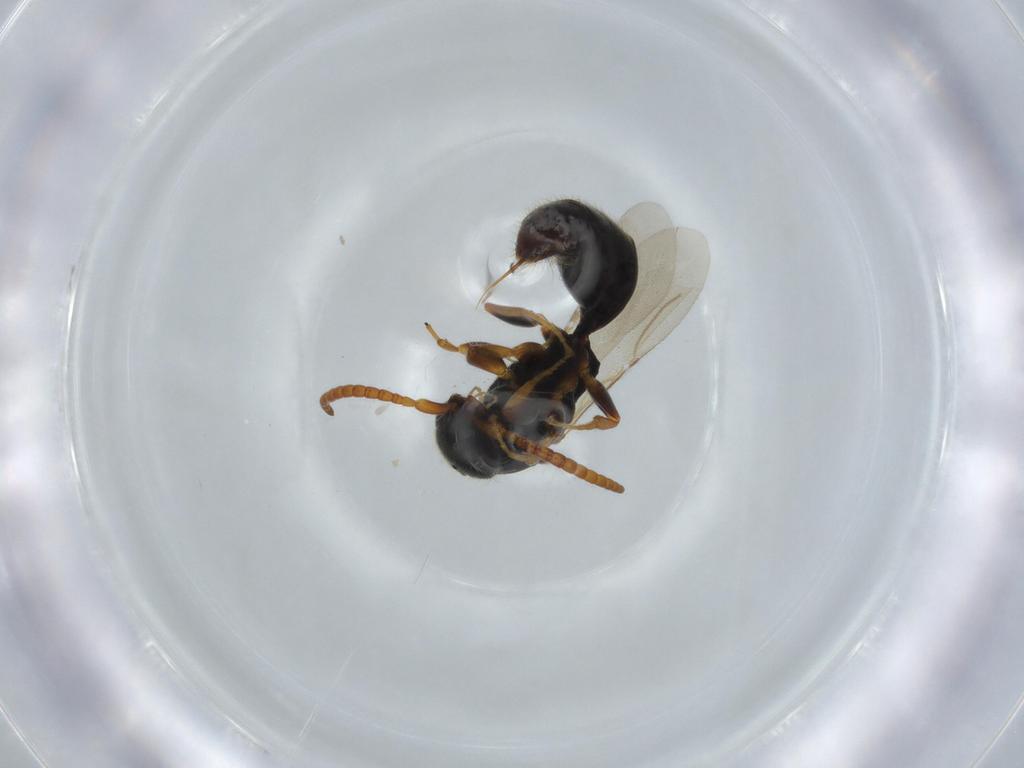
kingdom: Animalia
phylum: Arthropoda
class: Insecta
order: Hymenoptera
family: Bethylidae
